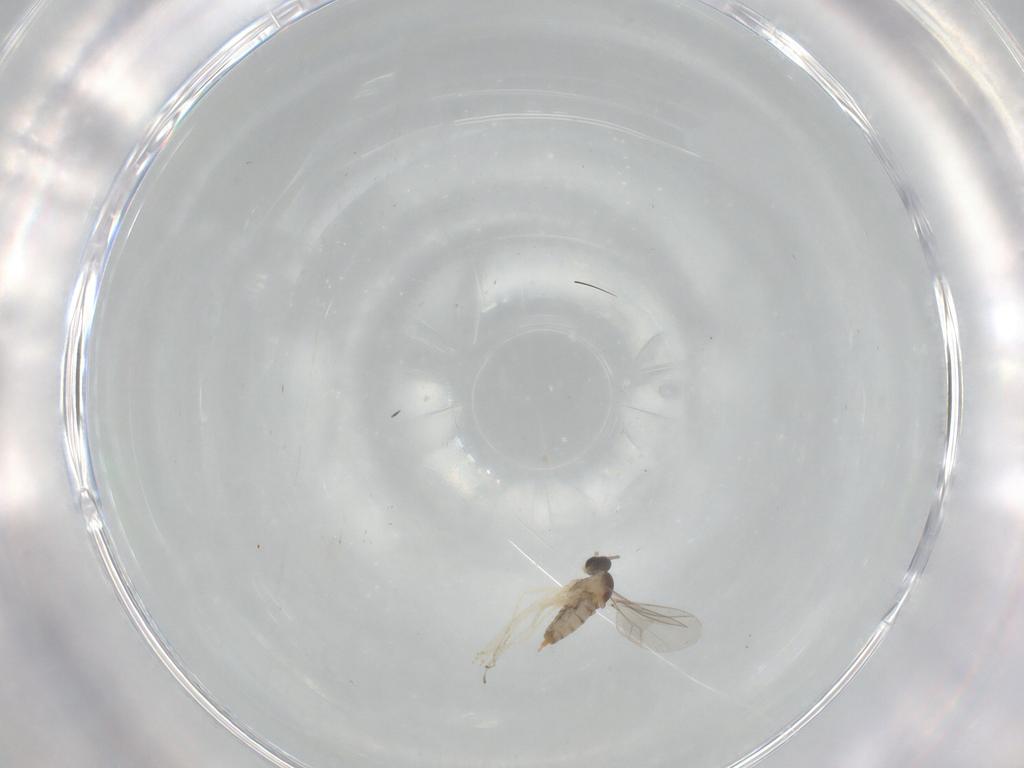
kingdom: Animalia
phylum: Arthropoda
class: Insecta
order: Diptera
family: Cecidomyiidae
